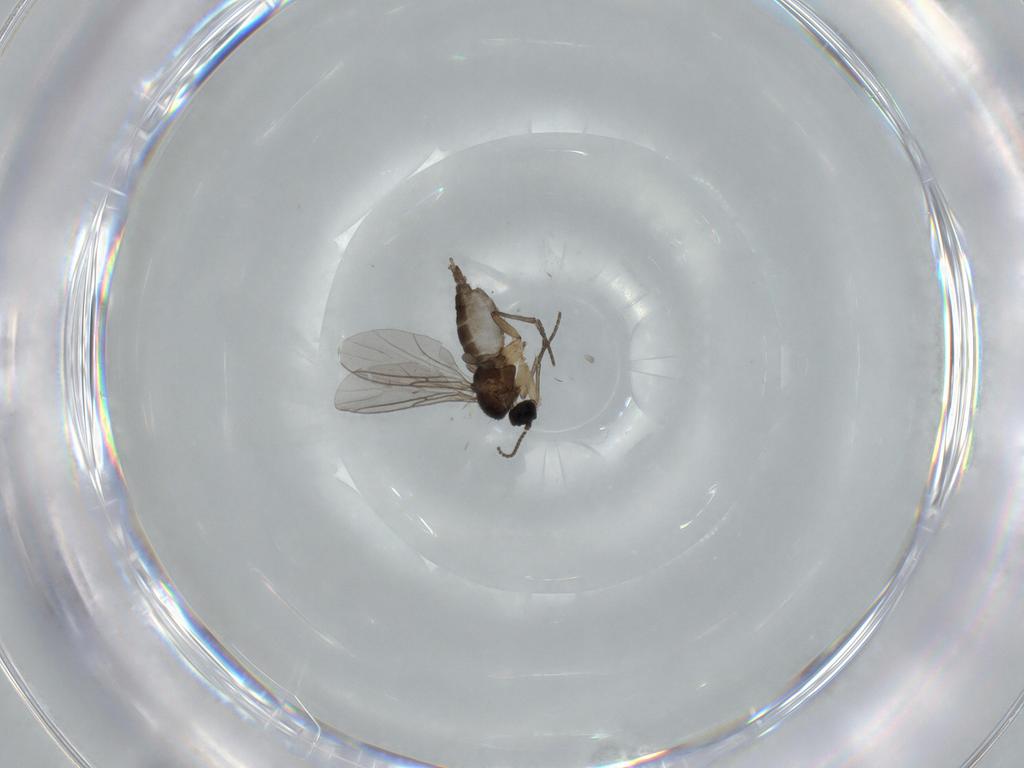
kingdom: Animalia
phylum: Arthropoda
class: Insecta
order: Diptera
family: Sciaridae
